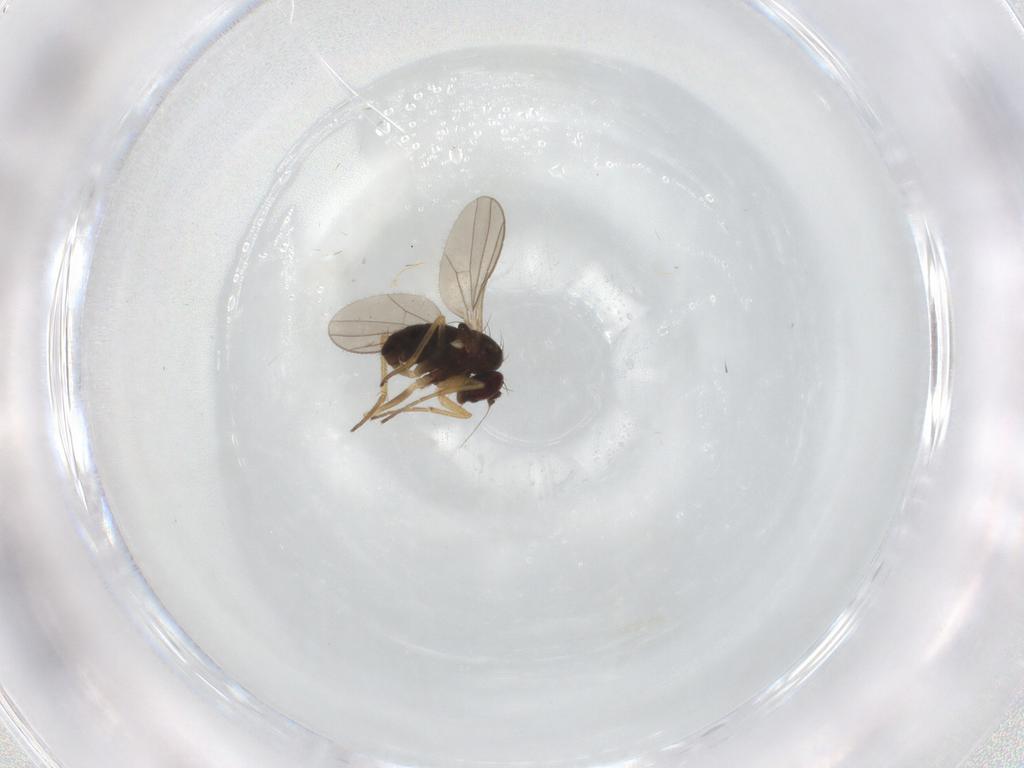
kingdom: Animalia
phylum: Arthropoda
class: Insecta
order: Diptera
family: Dolichopodidae
